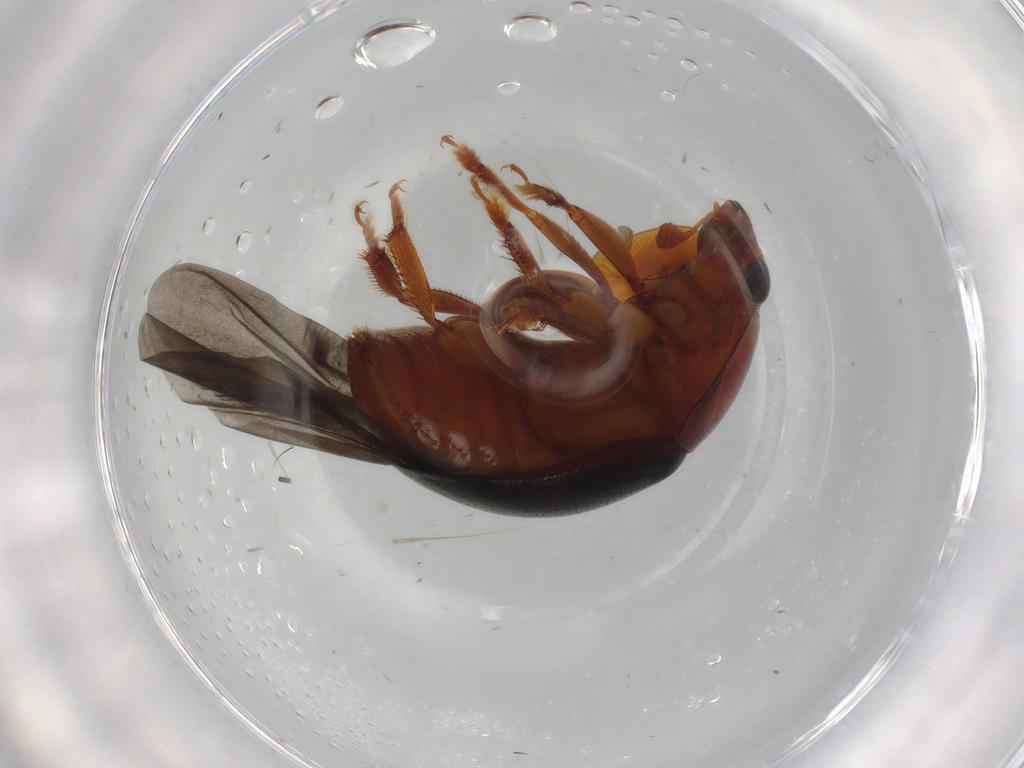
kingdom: Animalia
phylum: Arthropoda
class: Insecta
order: Coleoptera
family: Nitidulidae
